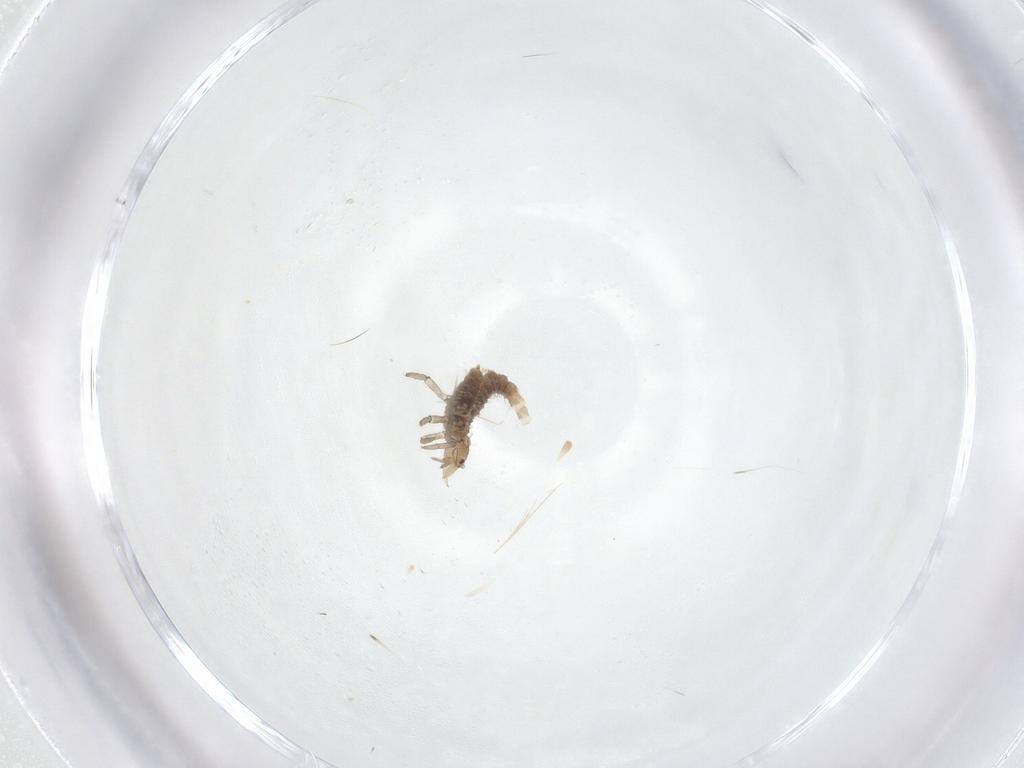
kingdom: Animalia
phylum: Arthropoda
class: Insecta
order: Neuroptera
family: Hemerobiidae
